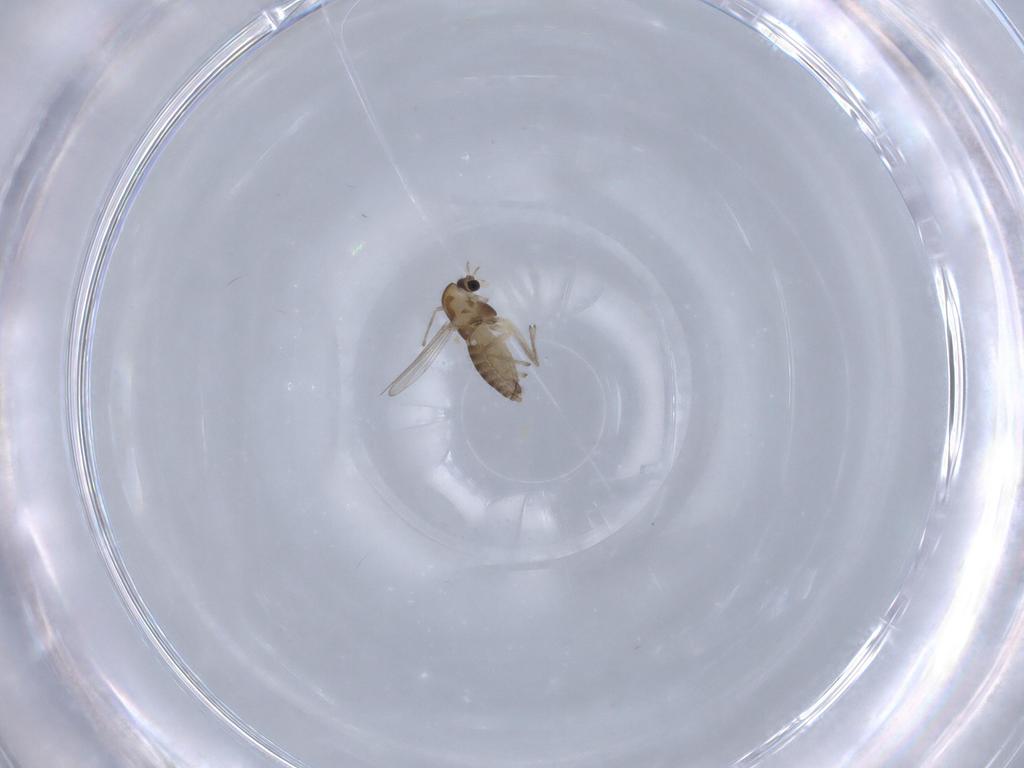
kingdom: Animalia
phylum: Arthropoda
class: Insecta
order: Diptera
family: Chironomidae
